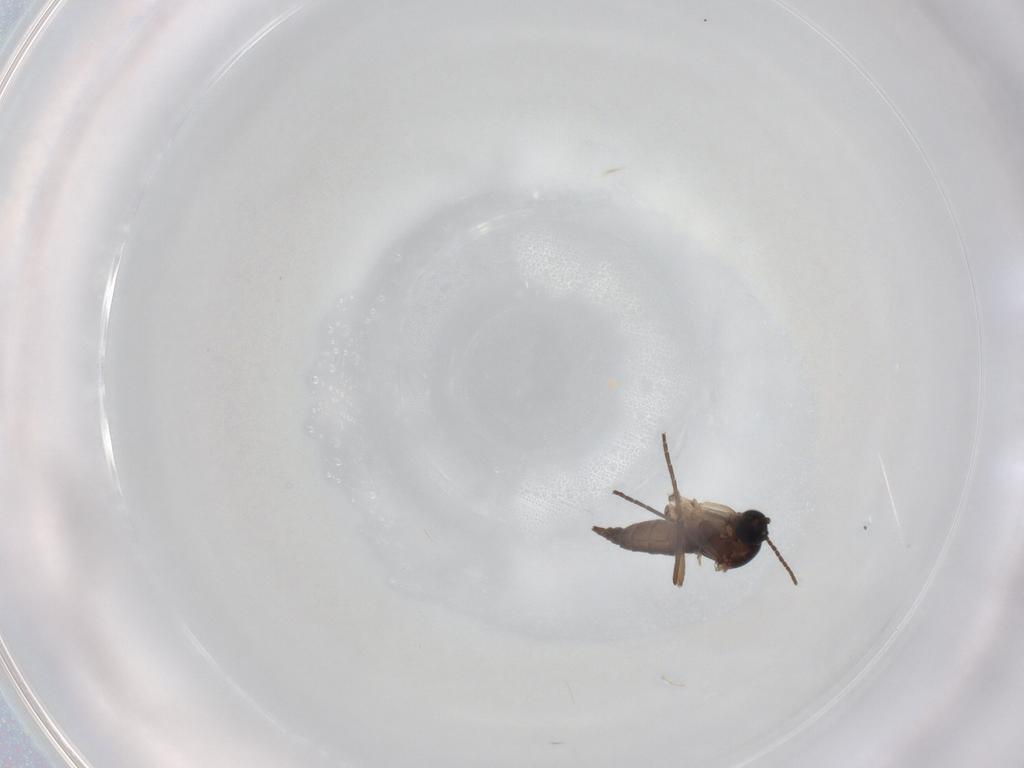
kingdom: Animalia
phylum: Arthropoda
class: Insecta
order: Diptera
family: Sciaridae
